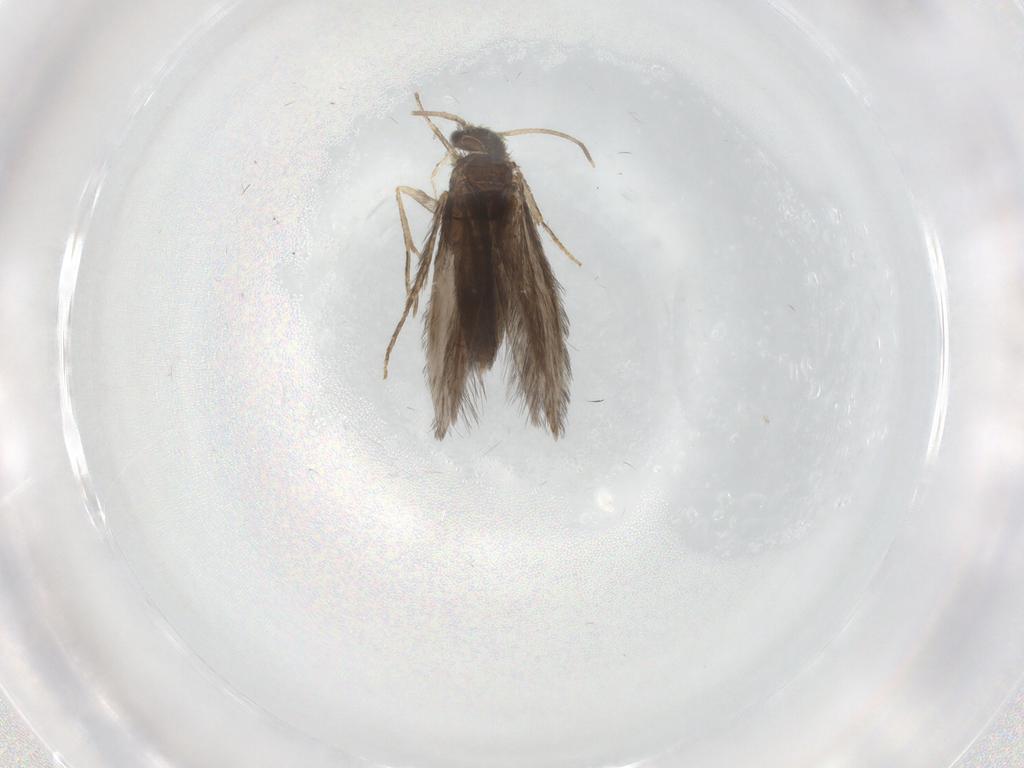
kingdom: Animalia
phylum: Arthropoda
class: Insecta
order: Trichoptera
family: Hydroptilidae
